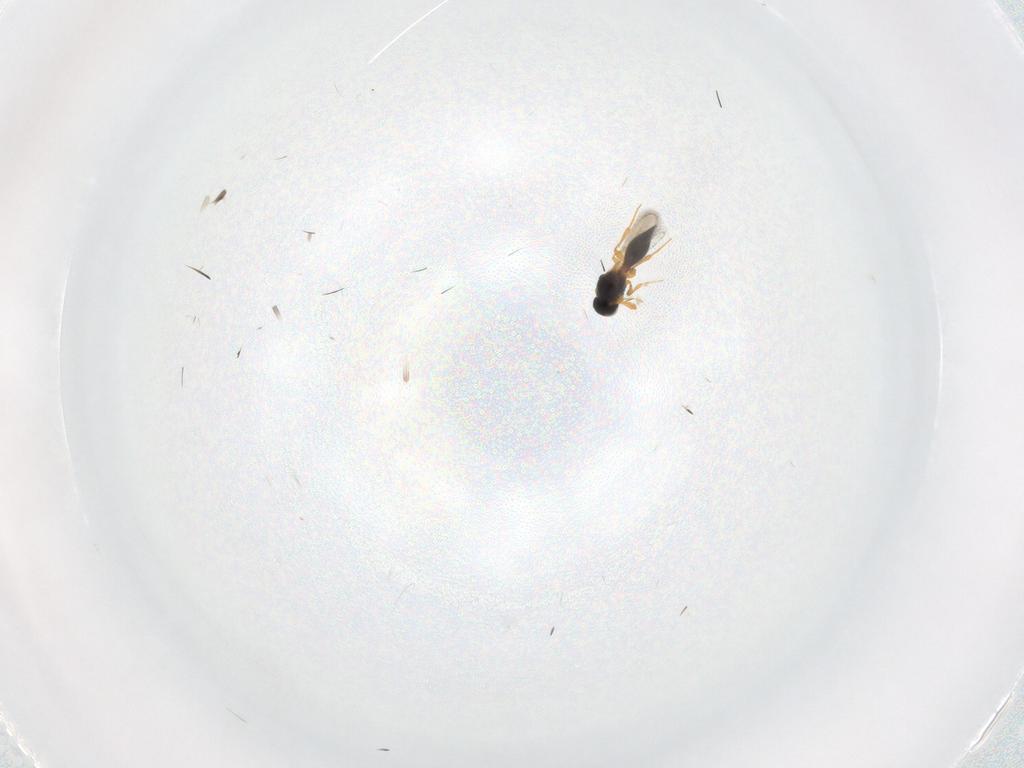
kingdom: Animalia
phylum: Arthropoda
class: Insecta
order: Hymenoptera
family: Platygastridae
